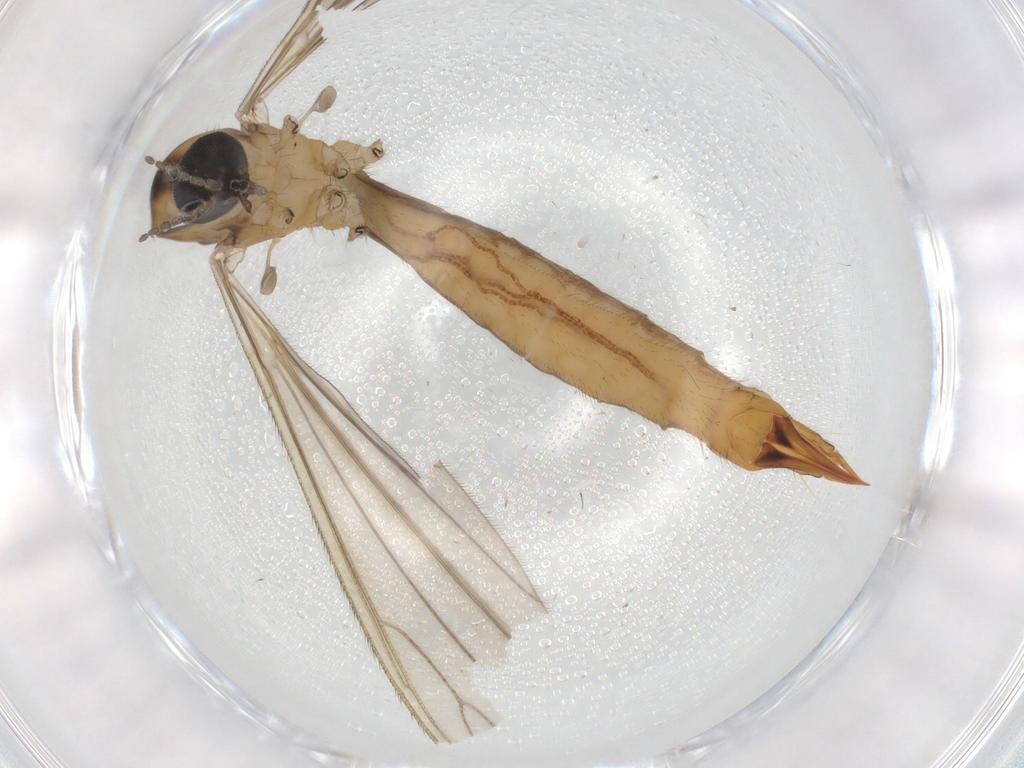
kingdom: Animalia
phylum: Arthropoda
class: Insecta
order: Diptera
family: Limoniidae
